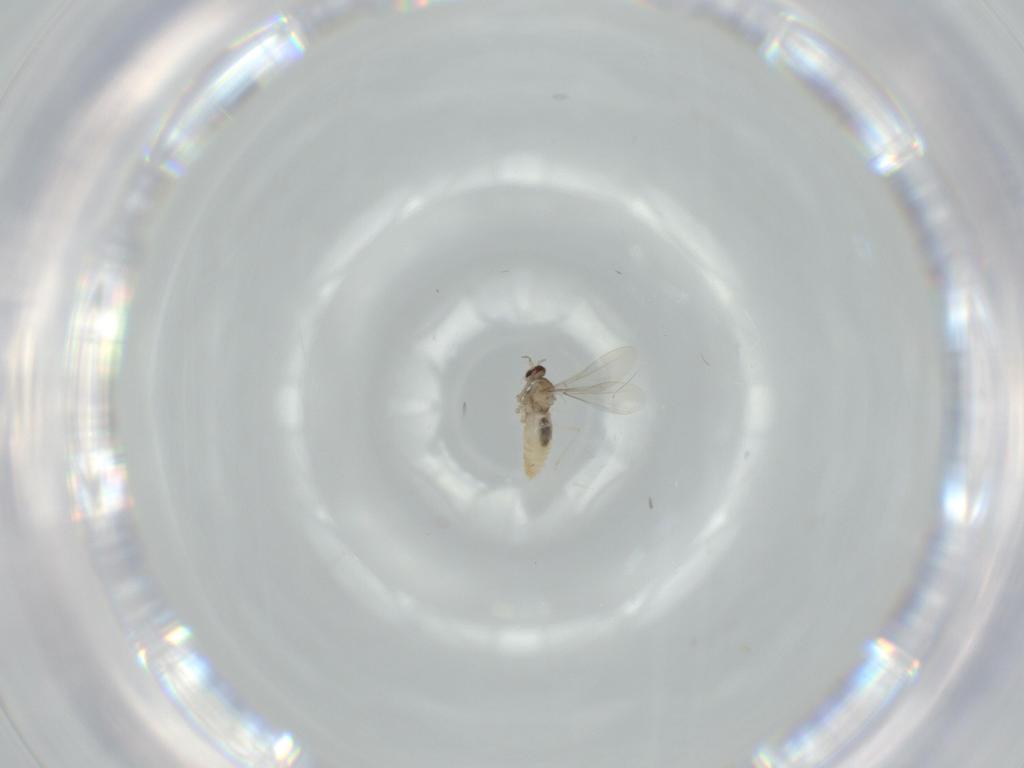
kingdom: Animalia
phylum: Arthropoda
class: Insecta
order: Diptera
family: Cecidomyiidae
